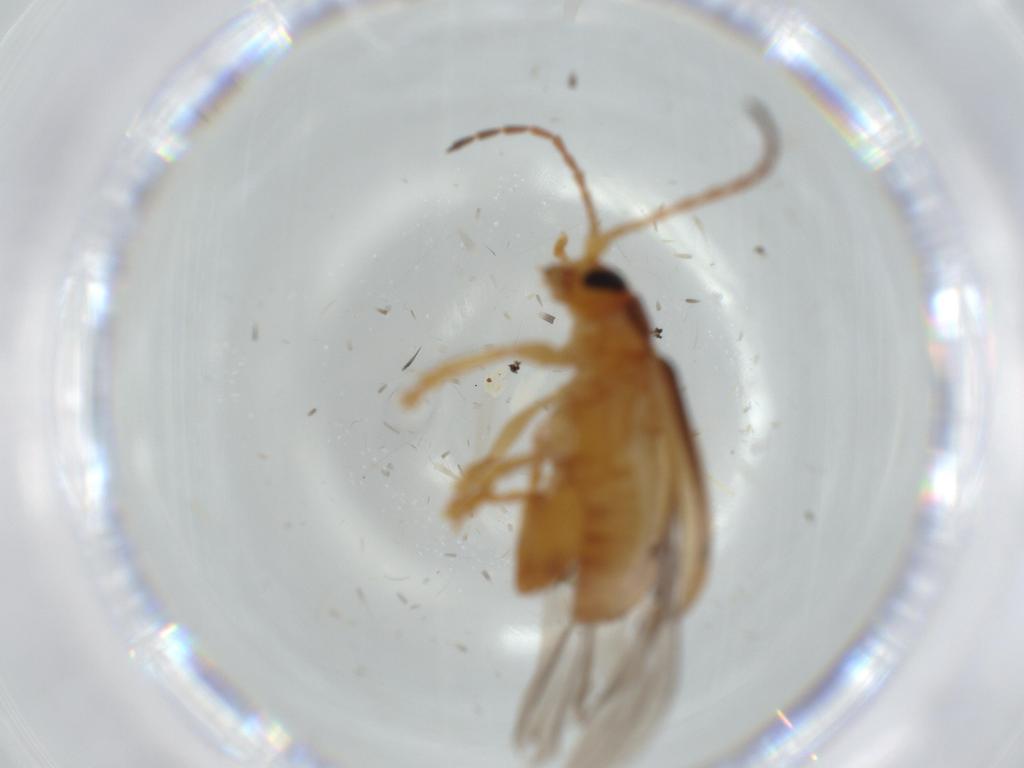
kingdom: Animalia
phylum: Arthropoda
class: Insecta
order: Coleoptera
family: Chrysomelidae
